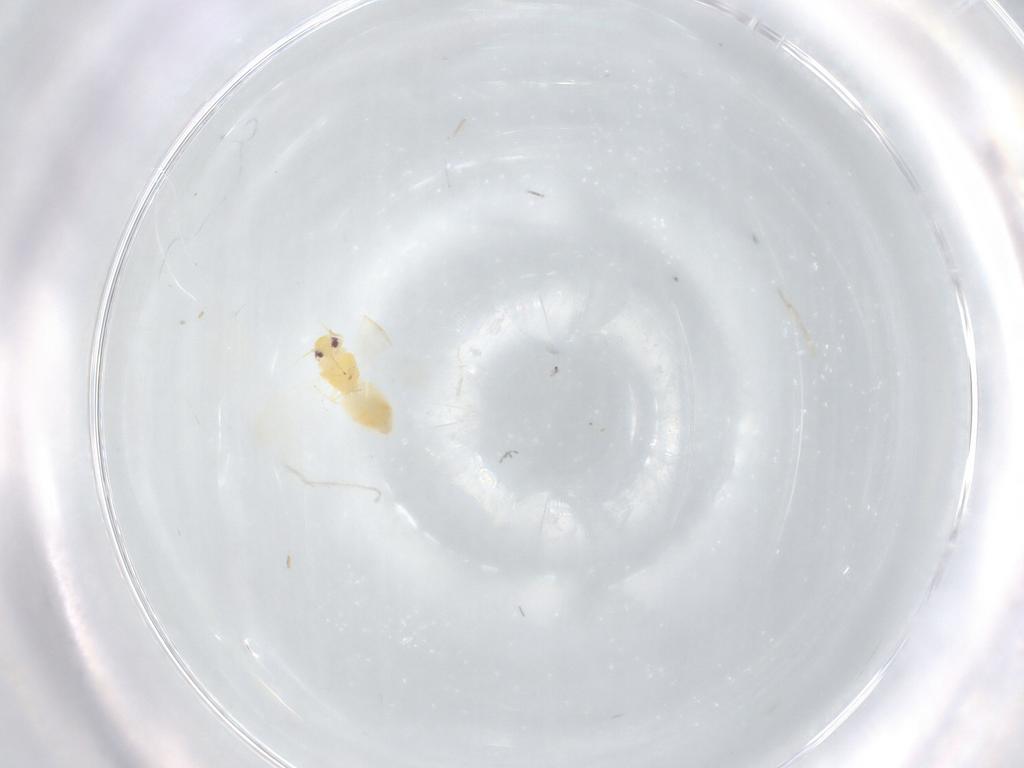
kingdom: Animalia
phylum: Arthropoda
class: Insecta
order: Hemiptera
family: Aleyrodidae
